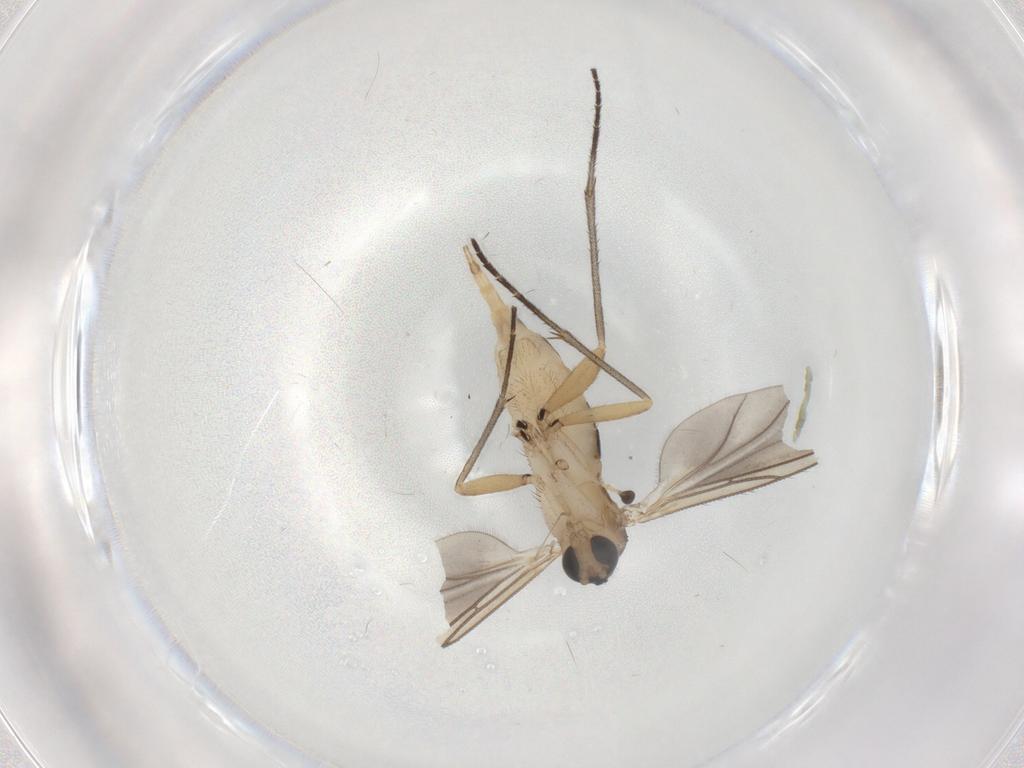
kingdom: Animalia
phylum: Arthropoda
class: Insecta
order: Diptera
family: Sciaridae
